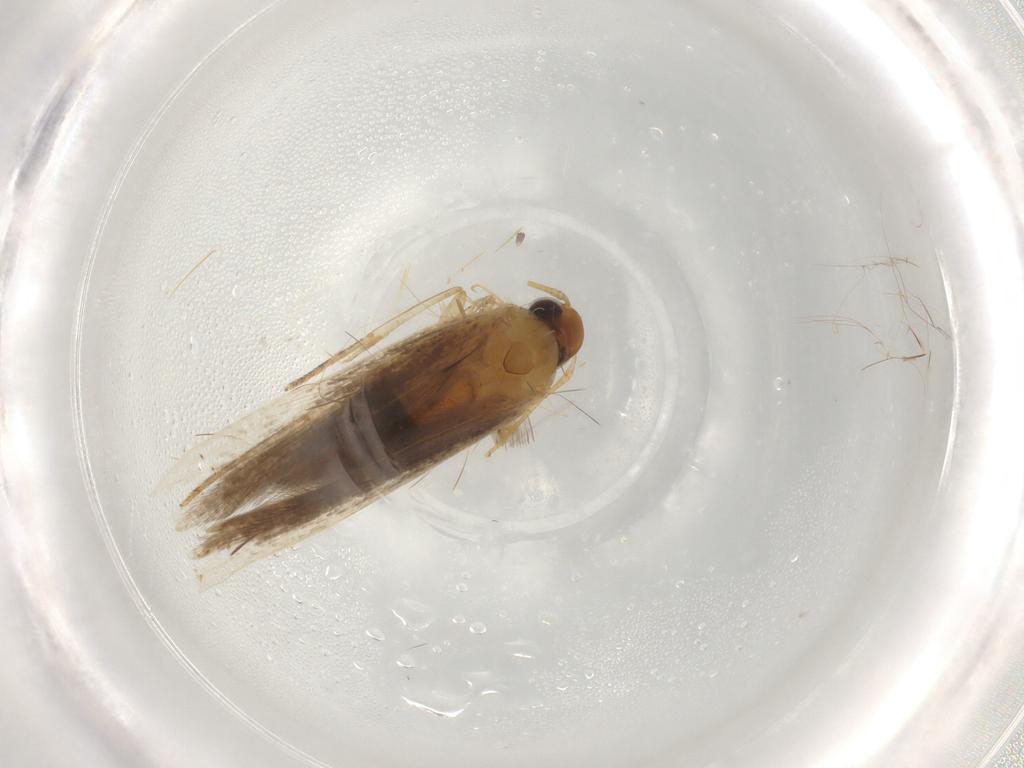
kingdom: Animalia
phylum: Arthropoda
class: Insecta
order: Lepidoptera
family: Gelechiidae
